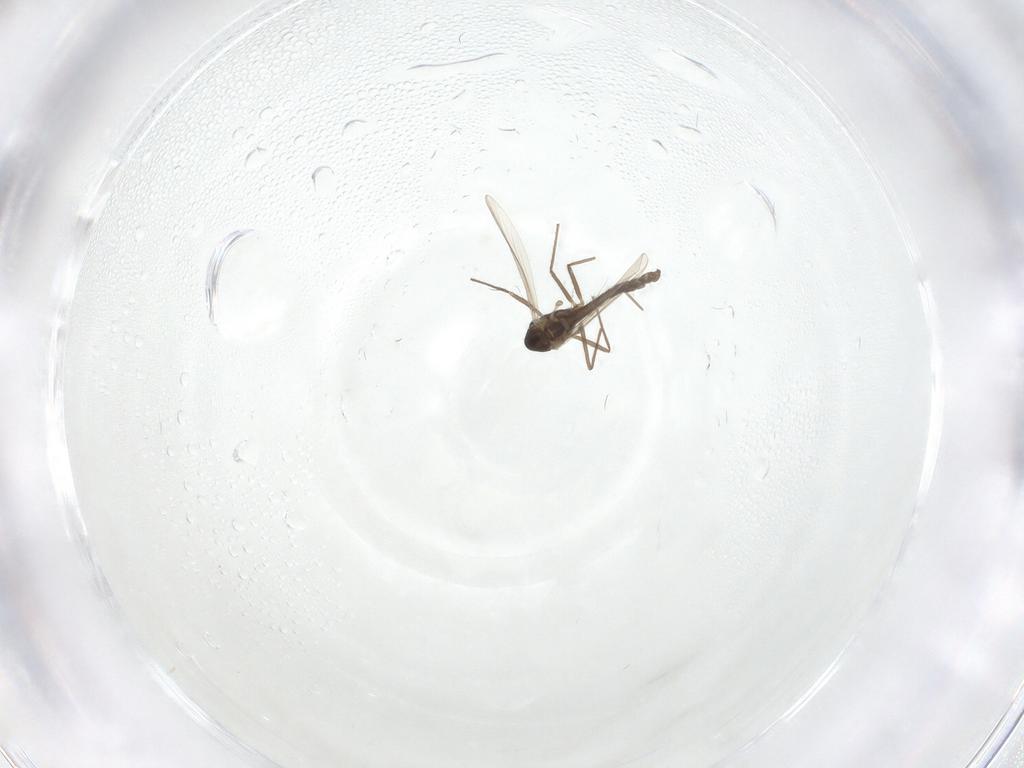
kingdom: Animalia
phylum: Arthropoda
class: Insecta
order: Diptera
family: Chironomidae
